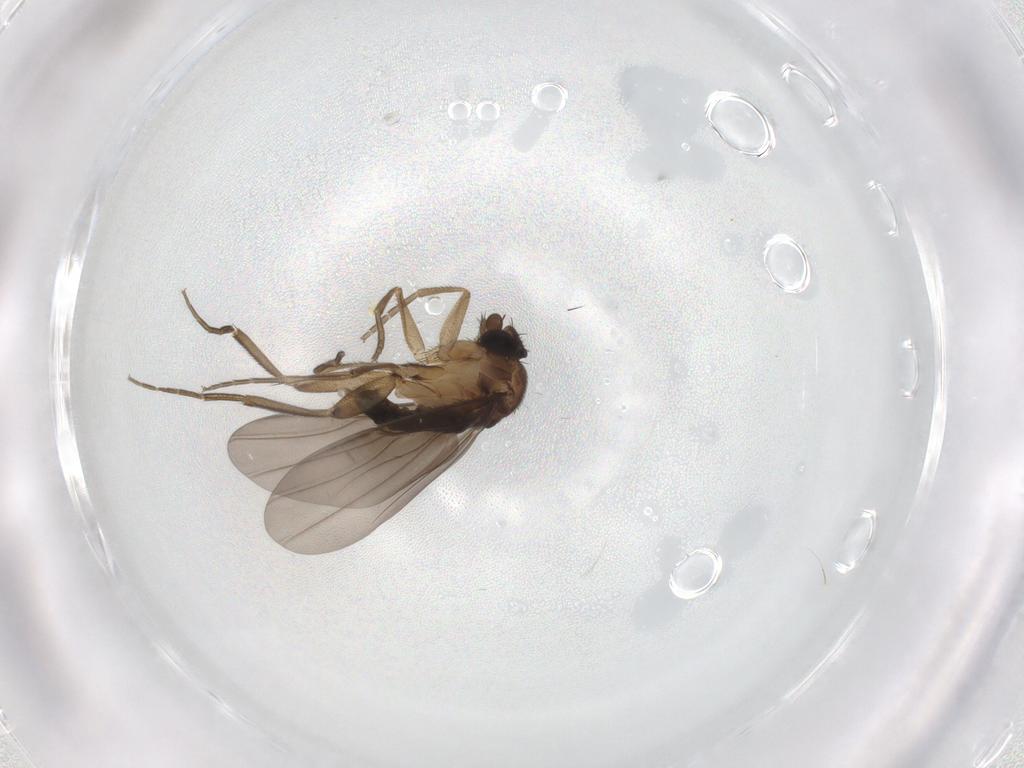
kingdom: Animalia
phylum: Arthropoda
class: Insecta
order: Diptera
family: Phoridae
